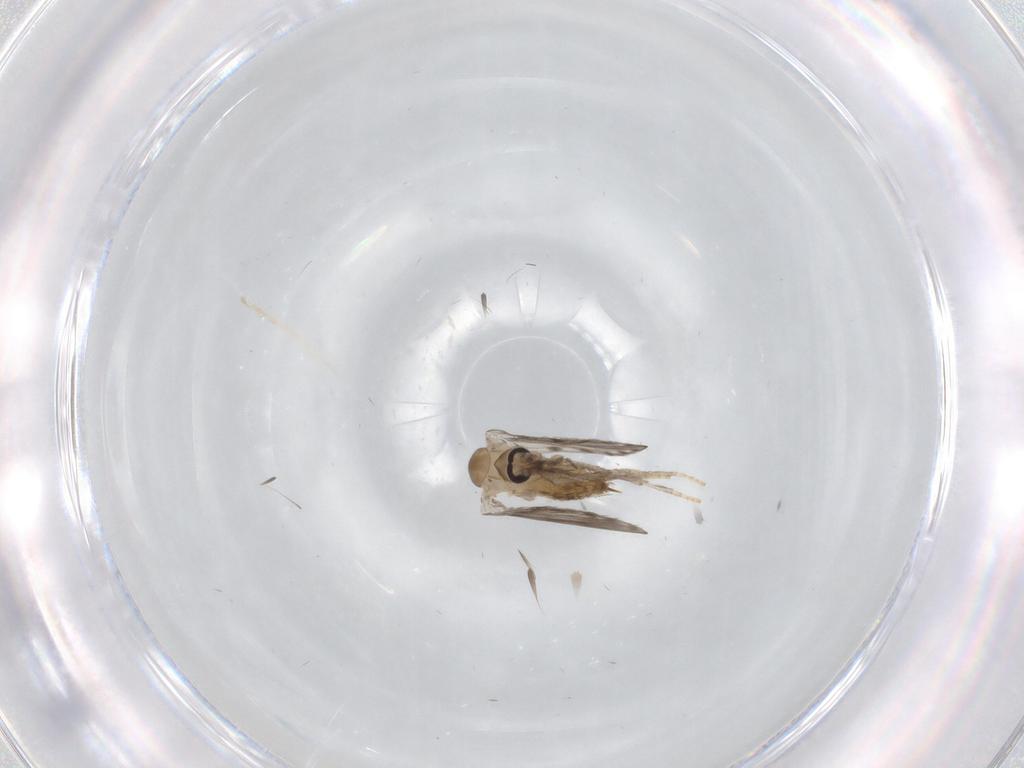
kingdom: Animalia
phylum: Arthropoda
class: Insecta
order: Diptera
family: Psychodidae
